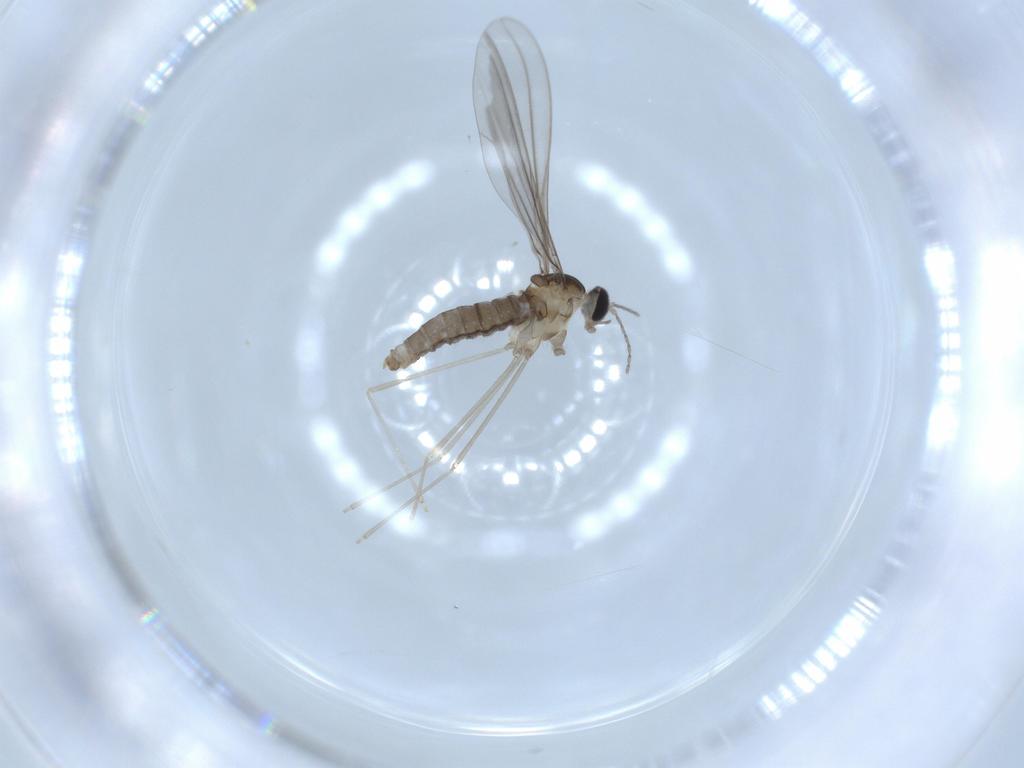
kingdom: Animalia
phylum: Arthropoda
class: Insecta
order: Diptera
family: Cecidomyiidae
